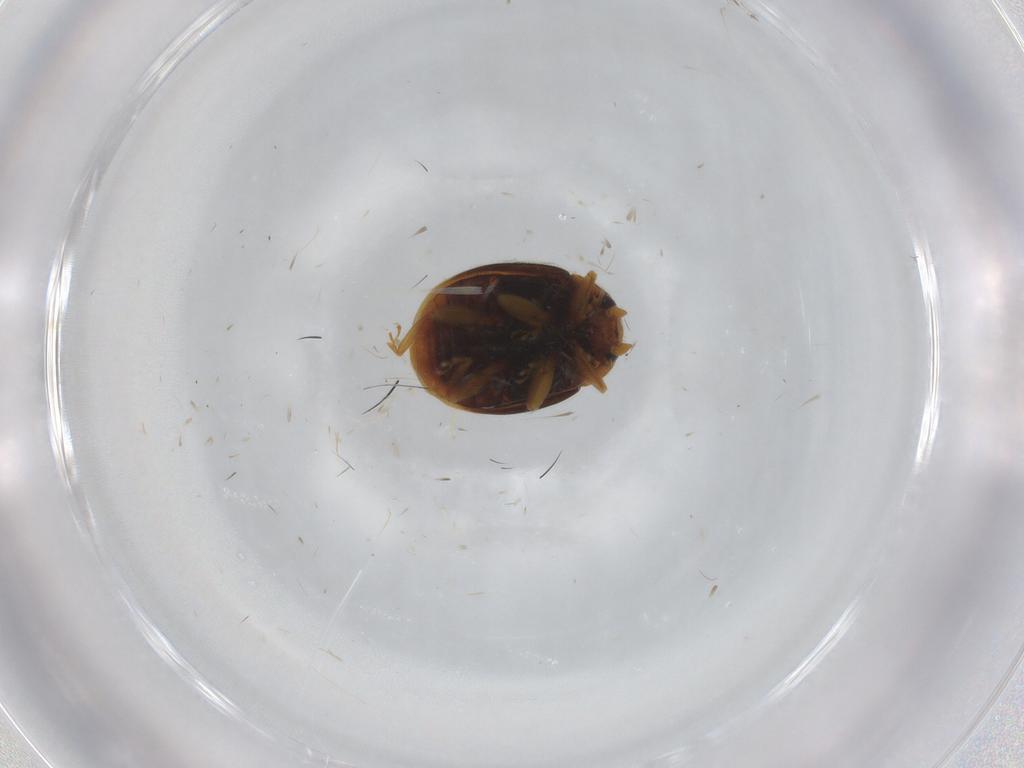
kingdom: Animalia
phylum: Arthropoda
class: Insecta
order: Coleoptera
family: Coccinellidae
